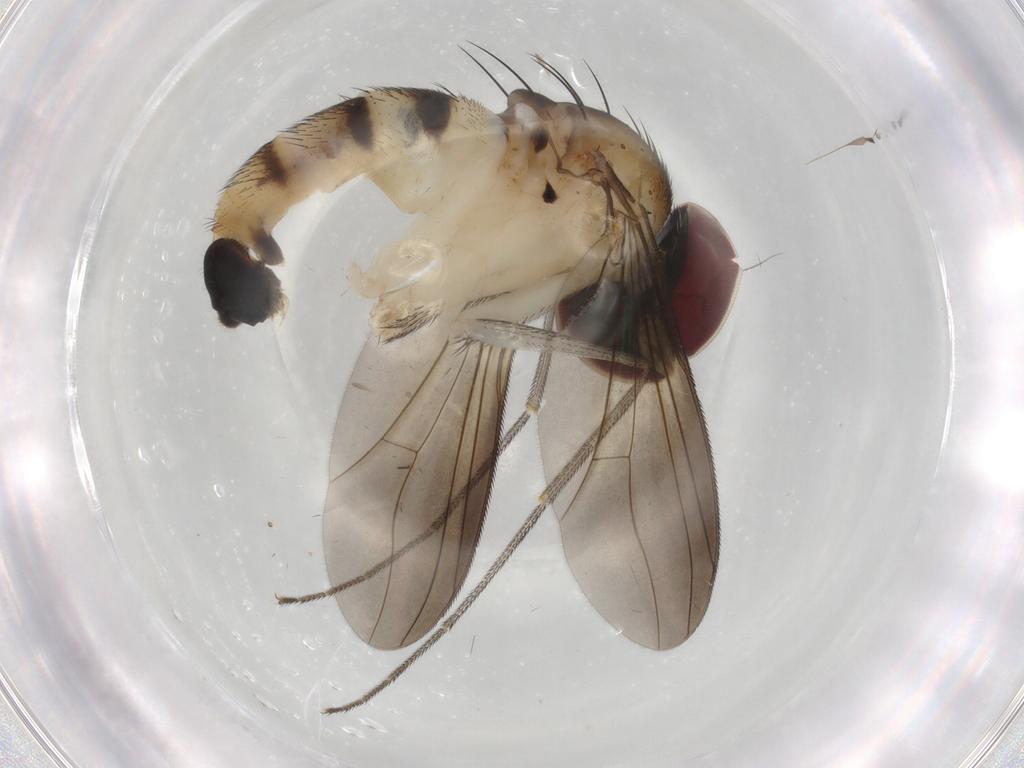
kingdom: Animalia
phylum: Arthropoda
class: Insecta
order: Diptera
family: Dolichopodidae
